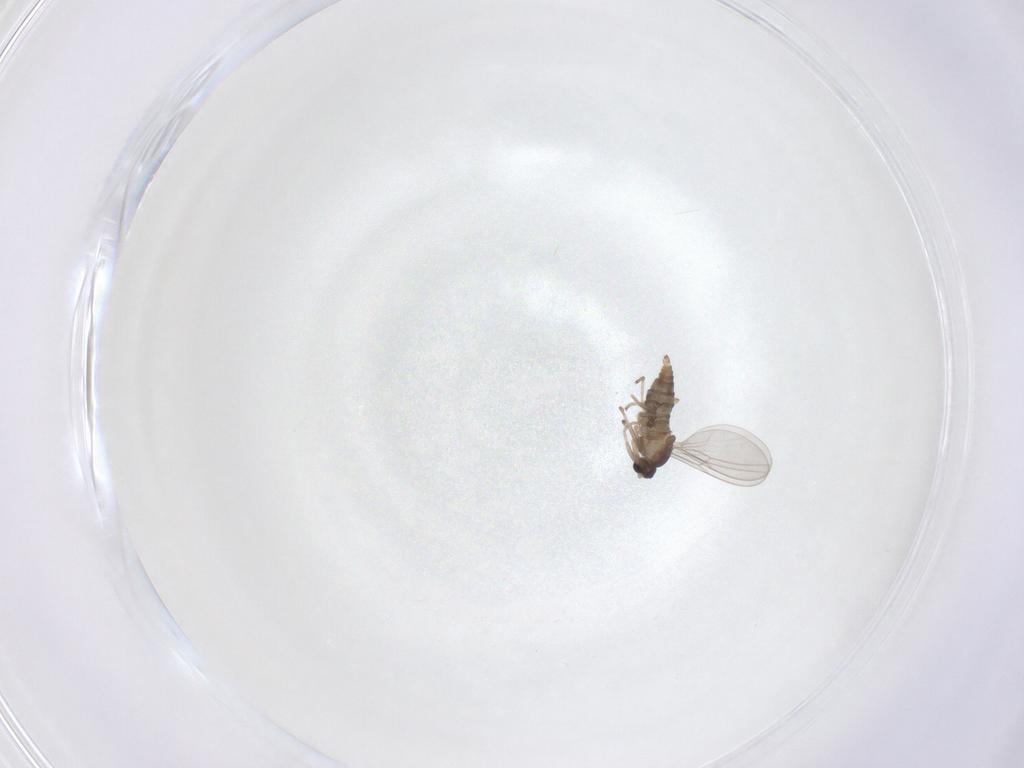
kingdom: Animalia
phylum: Arthropoda
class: Insecta
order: Diptera
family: Cecidomyiidae
